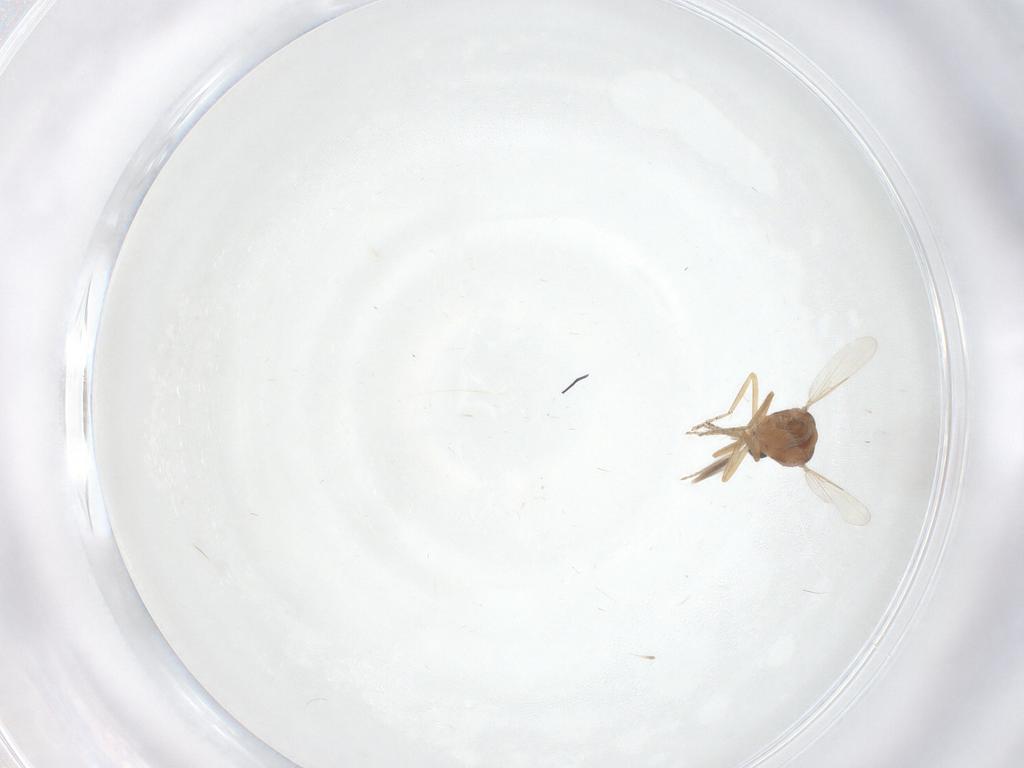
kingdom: Animalia
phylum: Arthropoda
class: Insecta
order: Diptera
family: Ceratopogonidae
